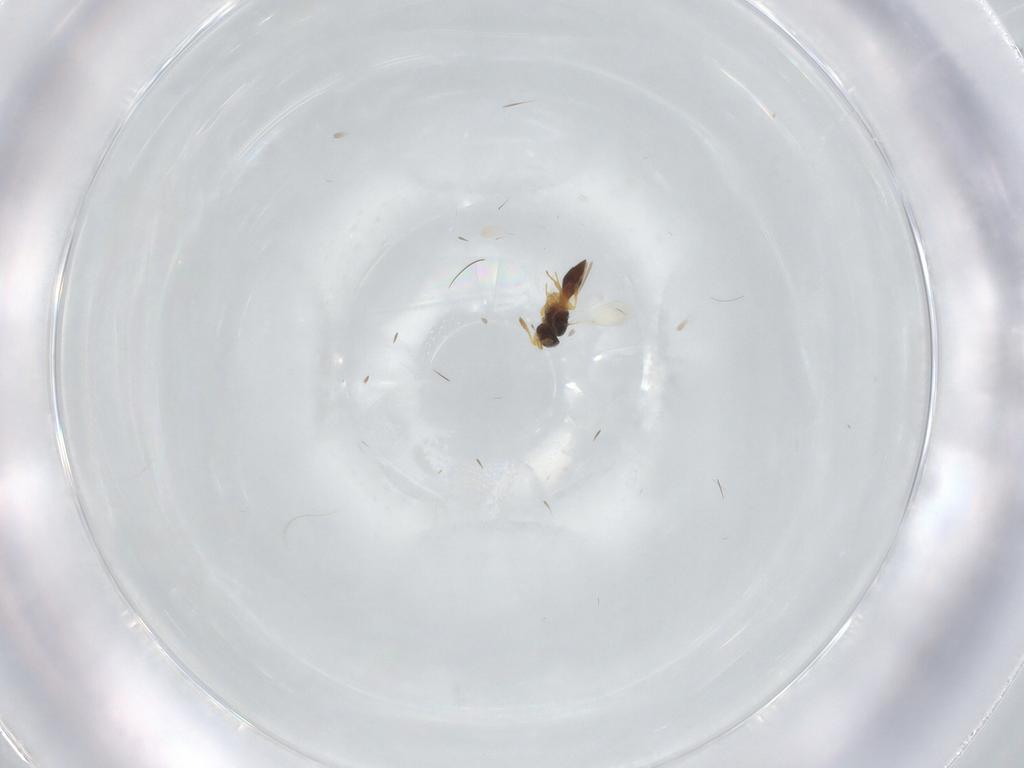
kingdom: Animalia
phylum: Arthropoda
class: Insecta
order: Hymenoptera
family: Platygastridae
